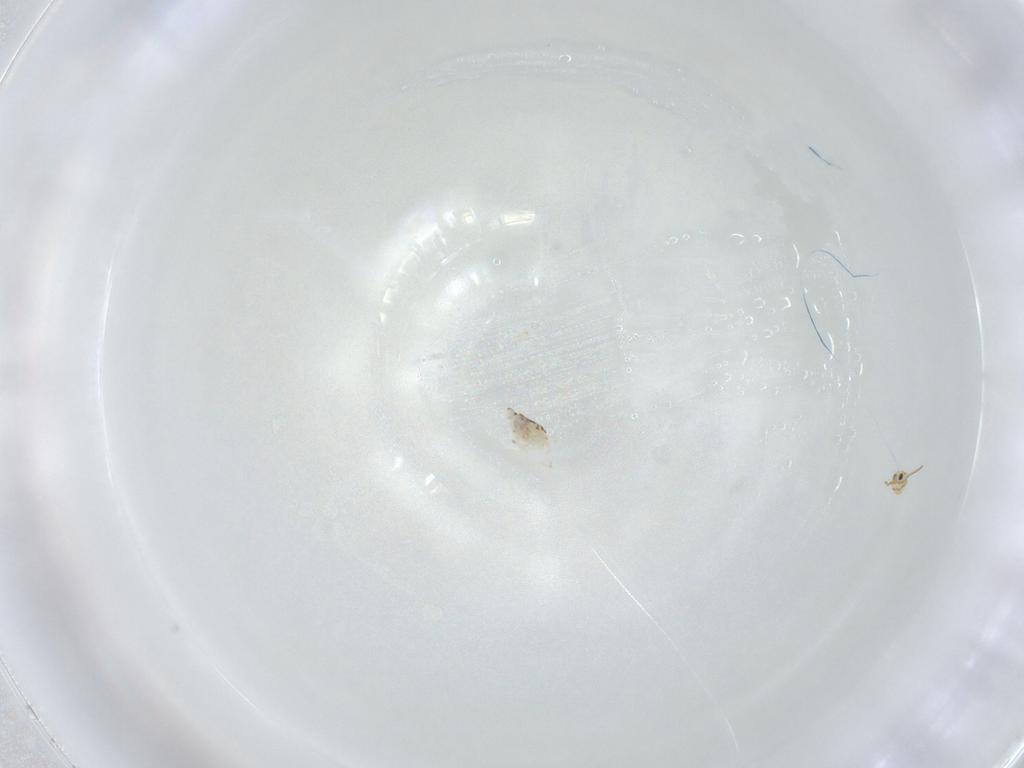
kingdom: Animalia
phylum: Arthropoda
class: Collembola
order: Symphypleona
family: Bourletiellidae
